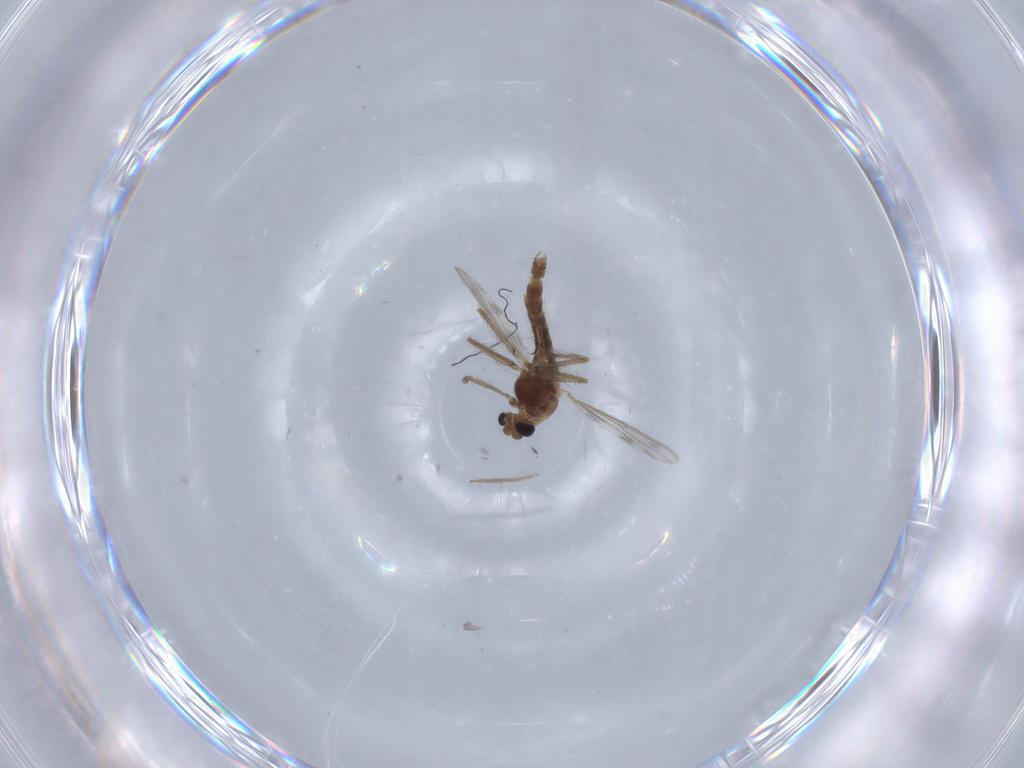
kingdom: Animalia
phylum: Arthropoda
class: Insecta
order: Diptera
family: Chironomidae
